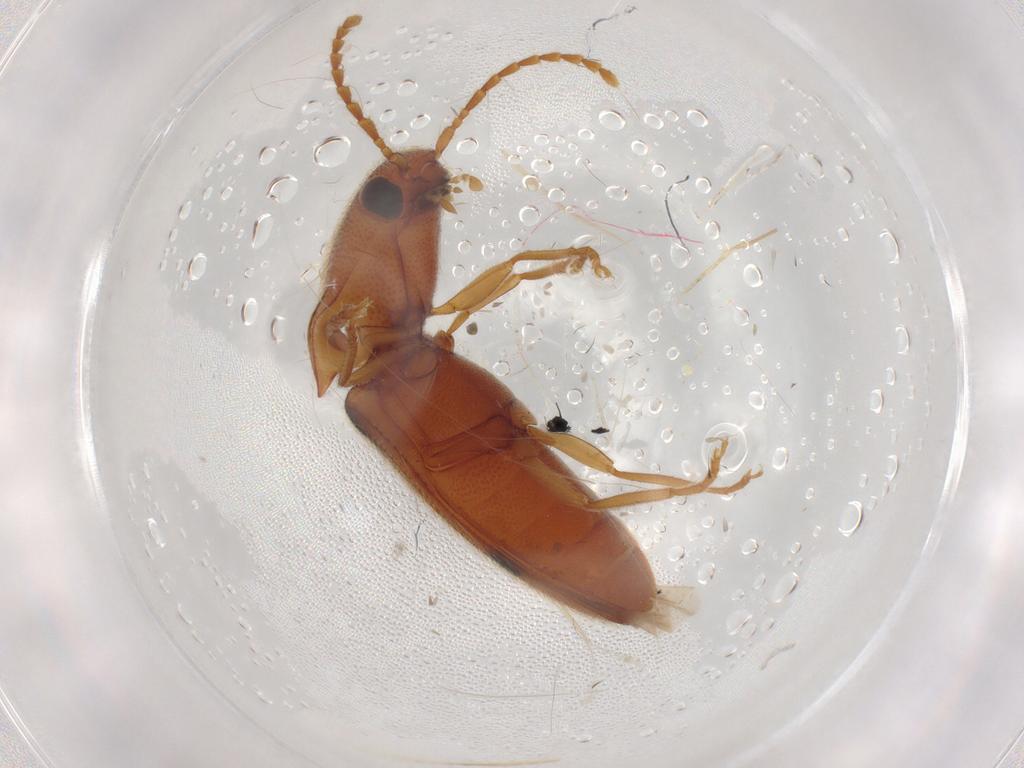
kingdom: Animalia
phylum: Arthropoda
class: Insecta
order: Coleoptera
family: Elateridae
